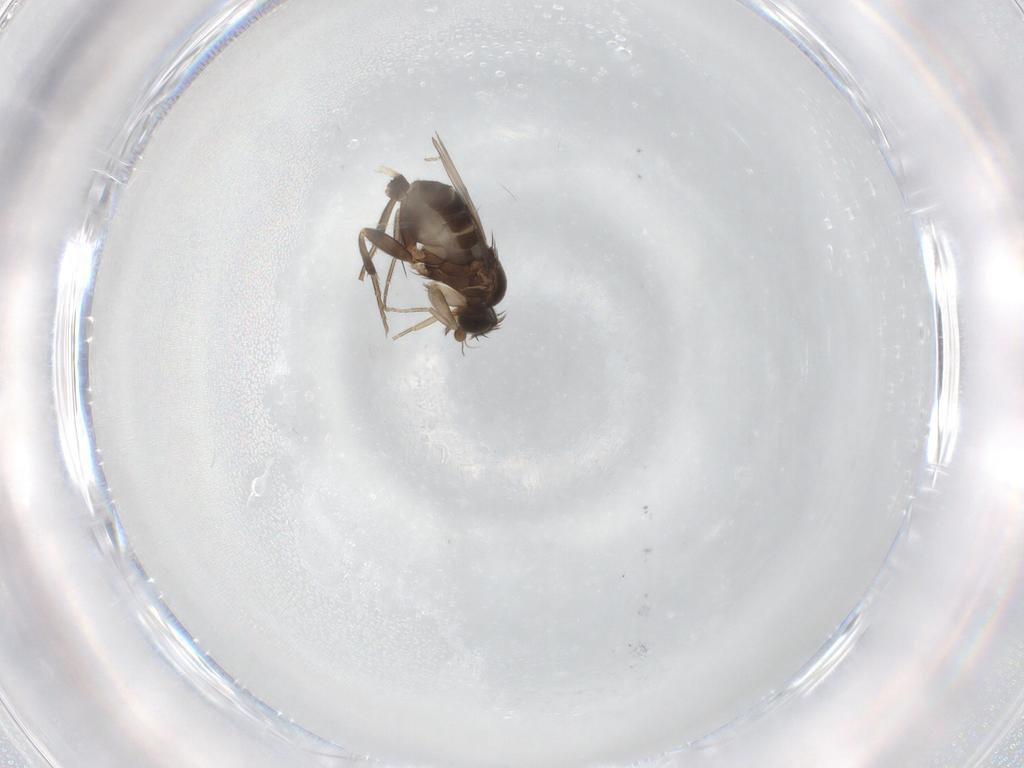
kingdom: Animalia
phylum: Arthropoda
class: Insecta
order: Diptera
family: Phoridae
